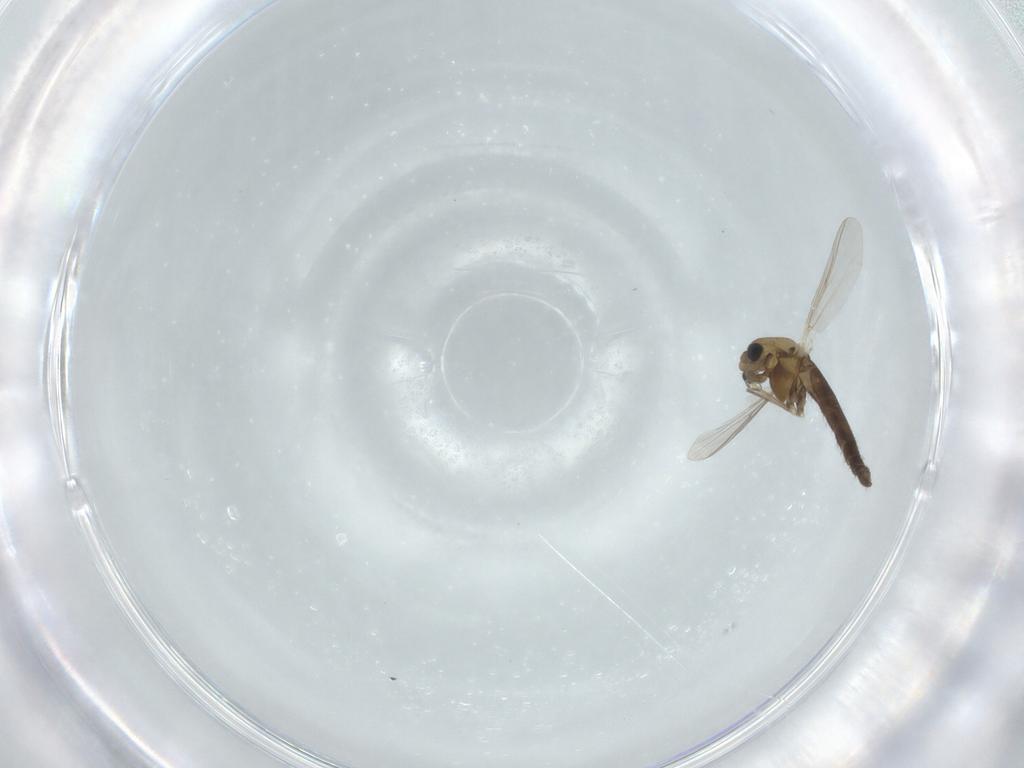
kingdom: Animalia
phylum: Arthropoda
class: Insecta
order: Diptera
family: Chironomidae
